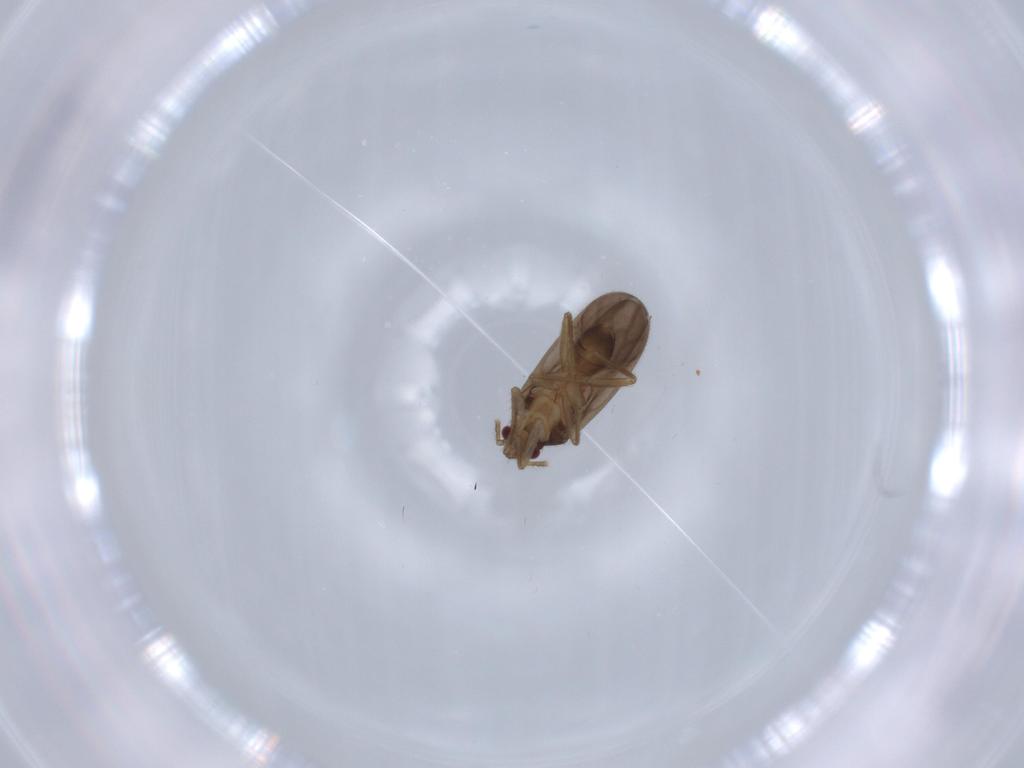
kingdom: Animalia
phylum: Arthropoda
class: Insecta
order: Hemiptera
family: Ceratocombidae
